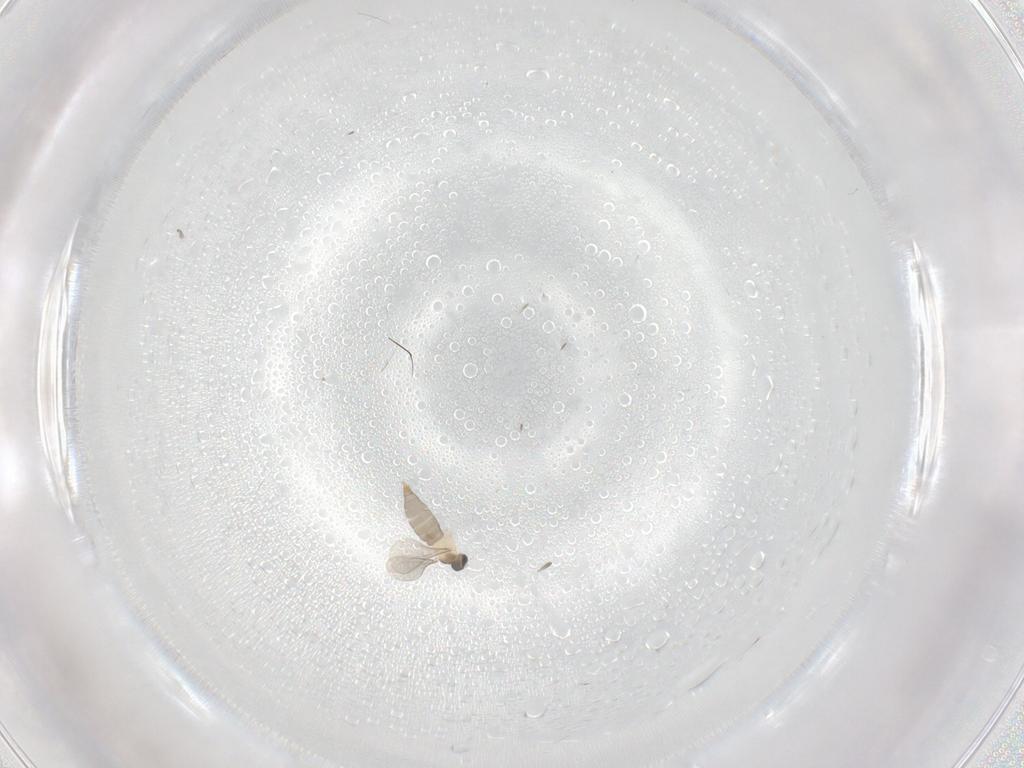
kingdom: Animalia
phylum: Arthropoda
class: Insecta
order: Diptera
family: Cecidomyiidae
